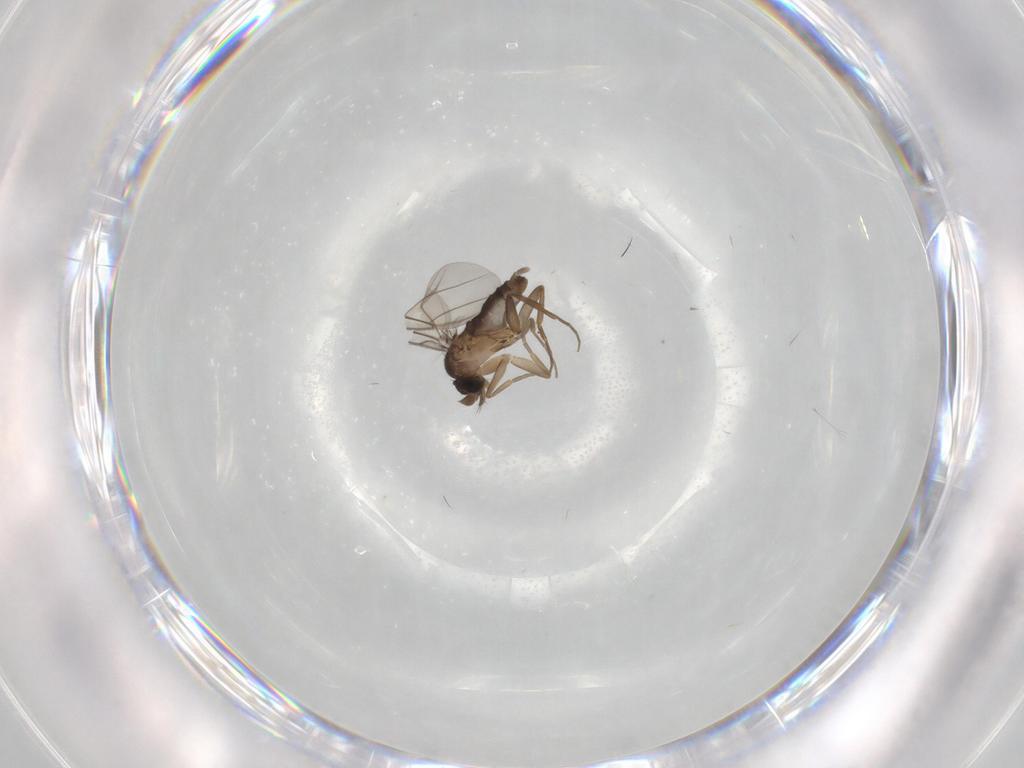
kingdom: Animalia
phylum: Arthropoda
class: Insecta
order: Diptera
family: Phoridae
